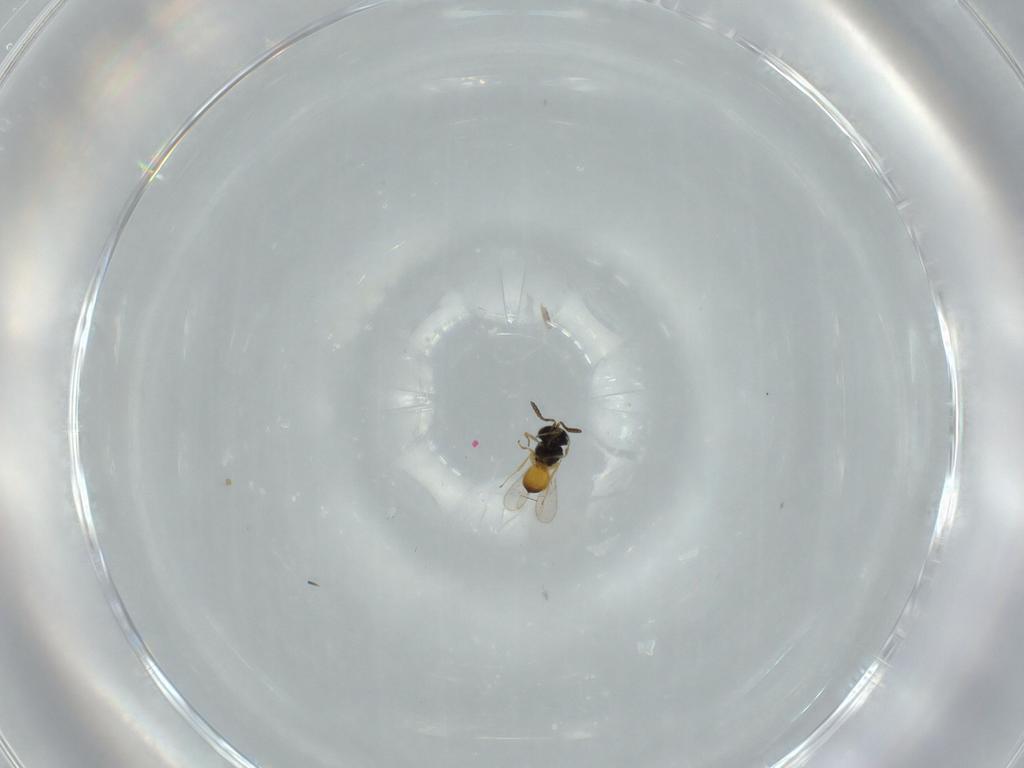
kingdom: Animalia
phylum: Arthropoda
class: Insecta
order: Hymenoptera
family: Scelionidae
